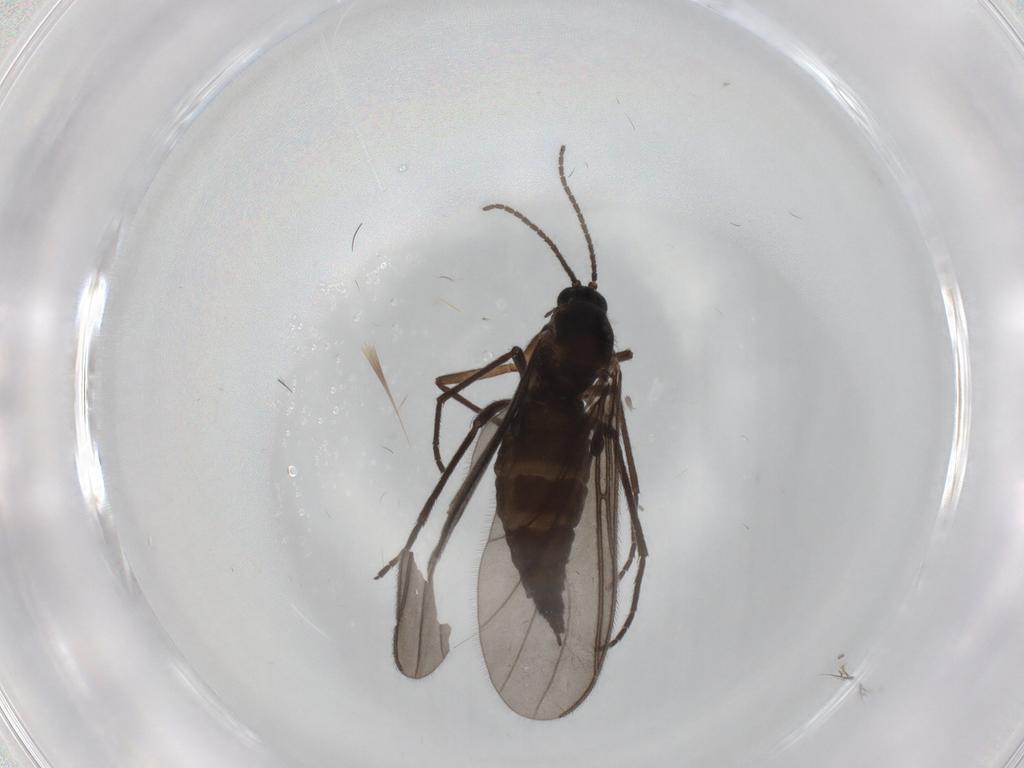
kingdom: Animalia
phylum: Arthropoda
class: Insecta
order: Diptera
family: Sciaridae
